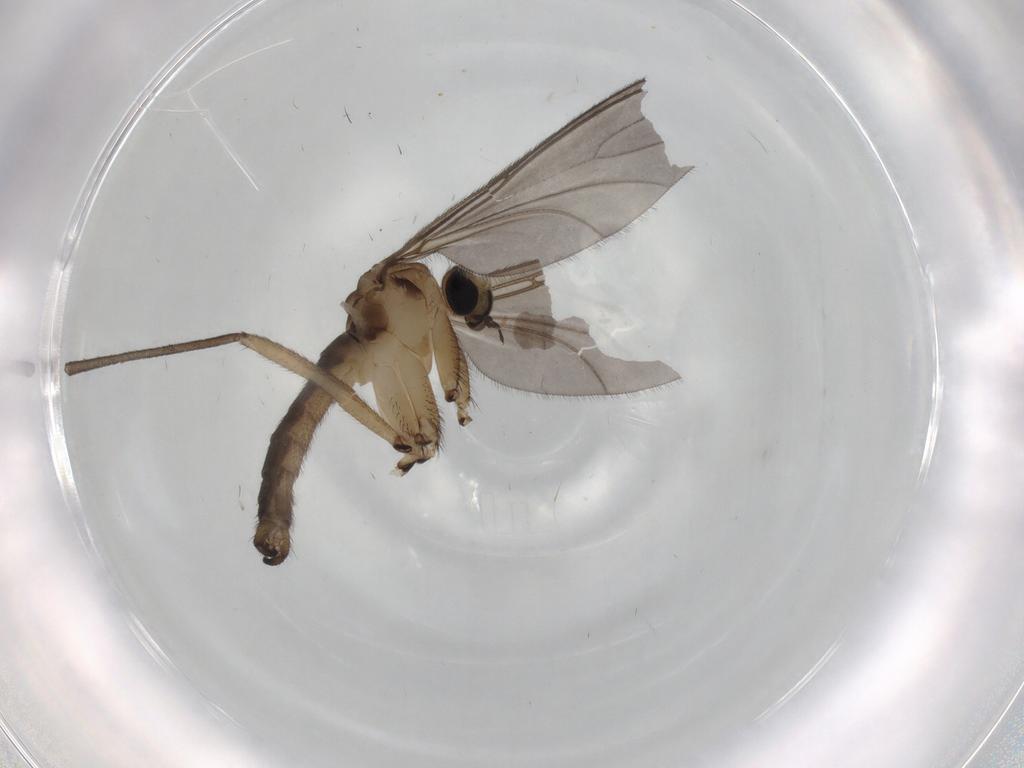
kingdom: Animalia
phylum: Arthropoda
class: Insecta
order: Diptera
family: Sciaridae
